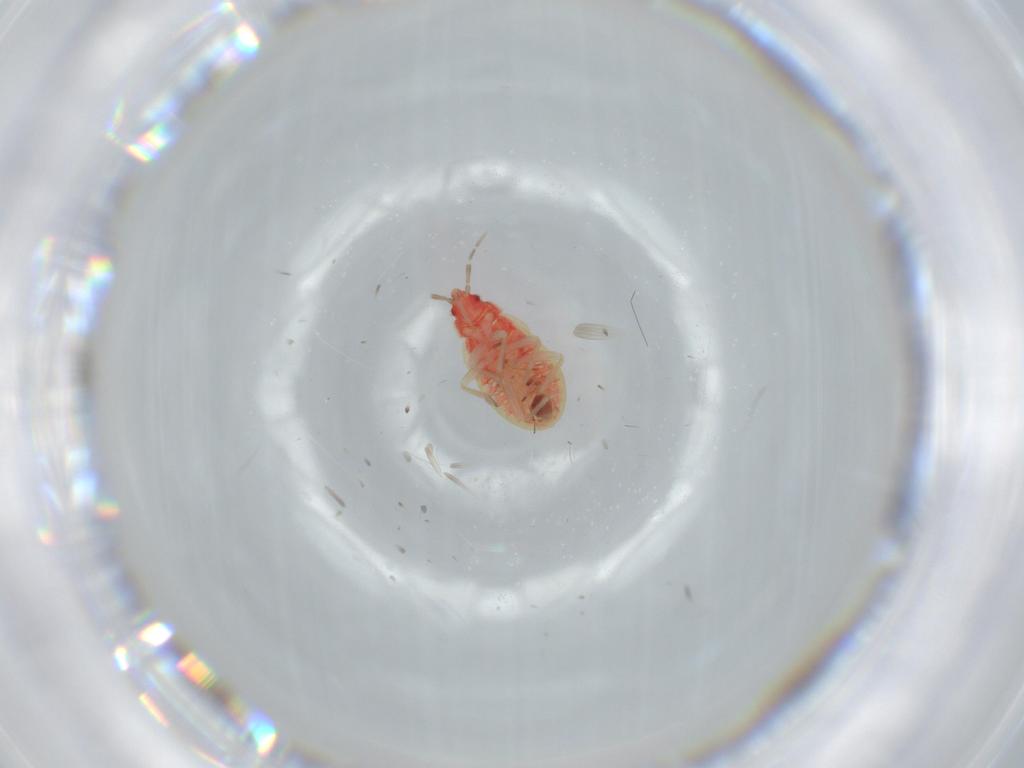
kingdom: Animalia
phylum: Arthropoda
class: Insecta
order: Hemiptera
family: Anthocoridae
